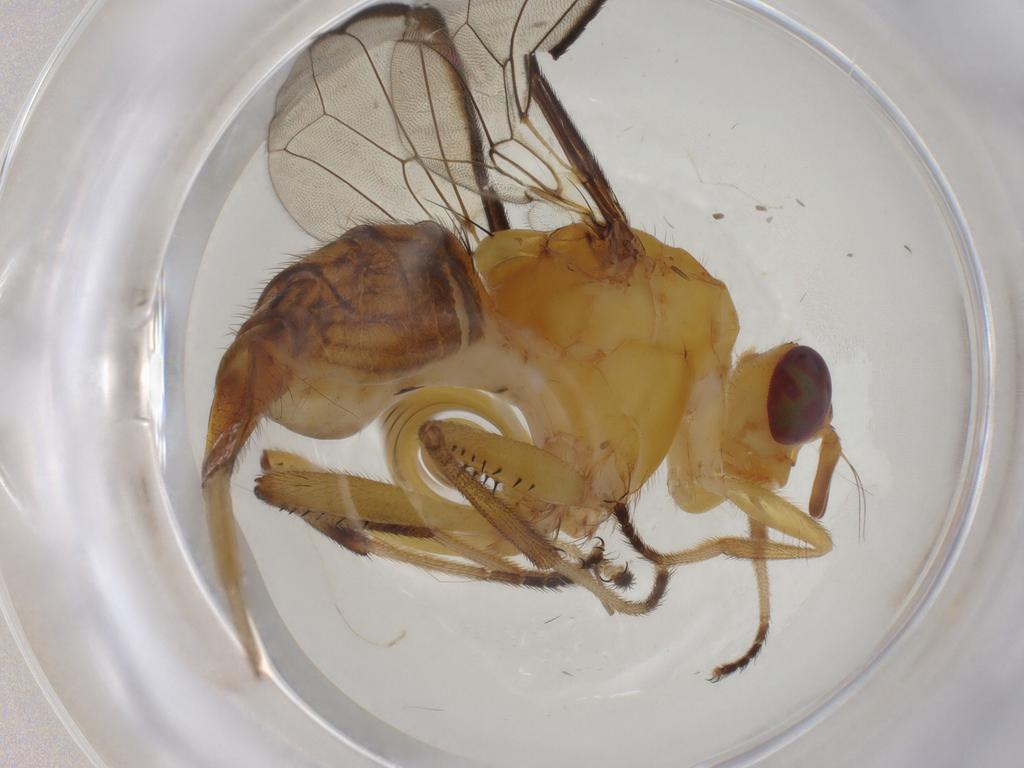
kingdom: Animalia
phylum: Arthropoda
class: Insecta
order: Diptera
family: Richardiidae
